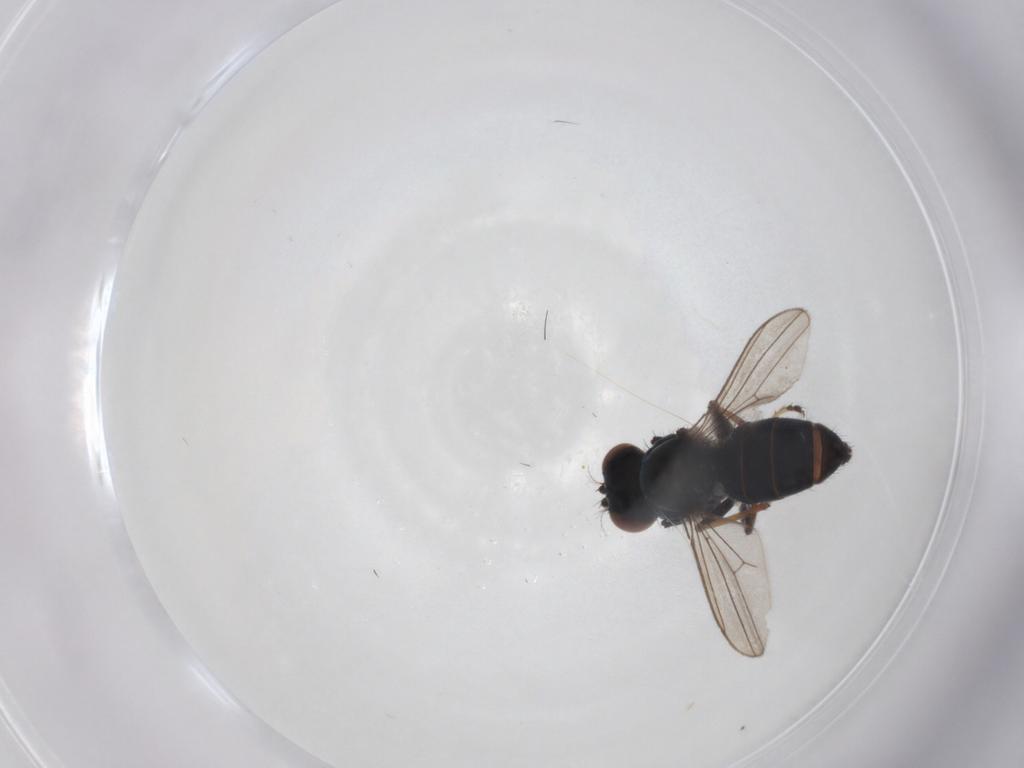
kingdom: Animalia
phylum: Arthropoda
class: Insecta
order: Diptera
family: Ephydridae
